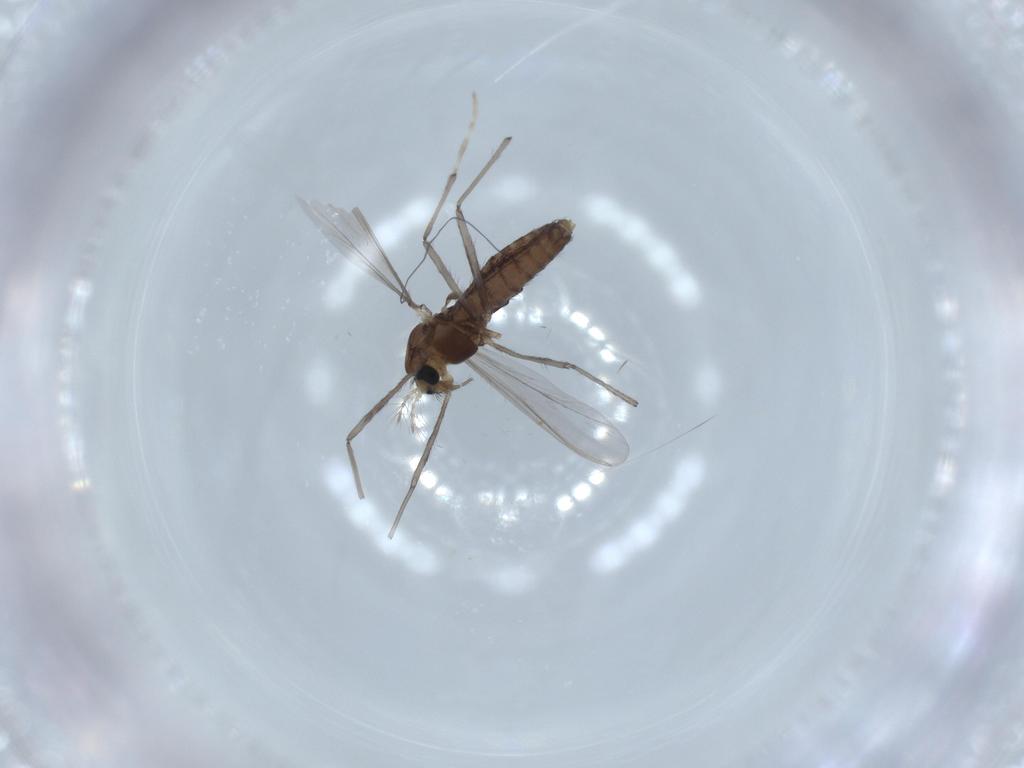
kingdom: Animalia
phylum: Arthropoda
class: Insecta
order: Diptera
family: Chironomidae
